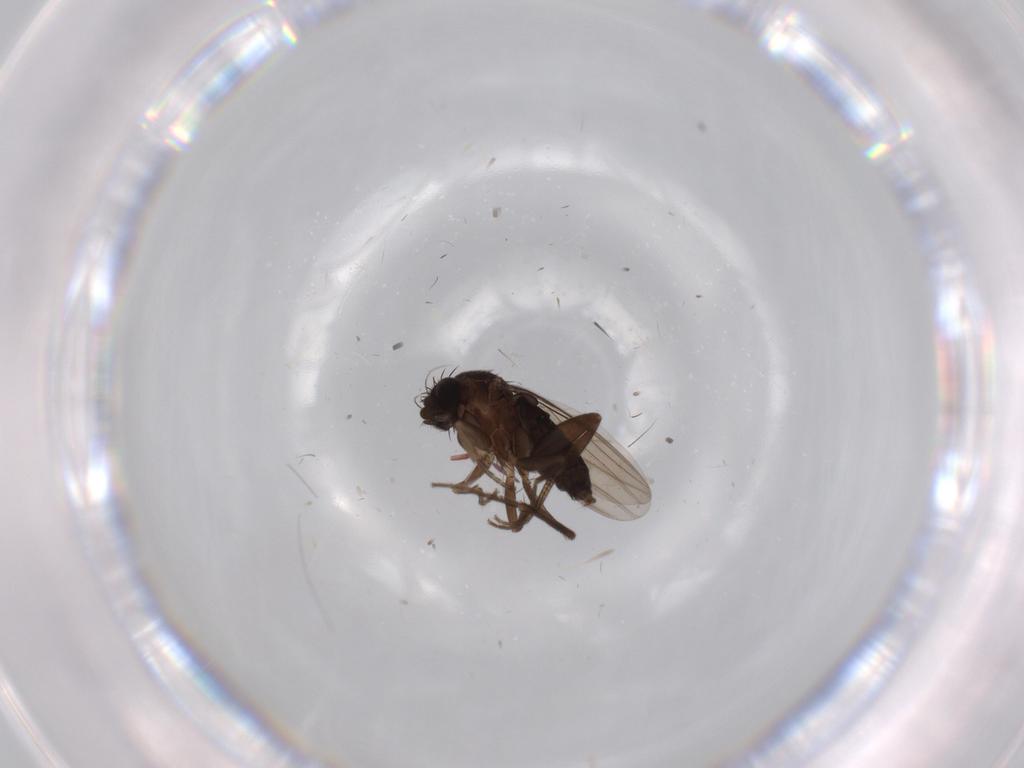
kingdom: Animalia
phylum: Arthropoda
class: Insecta
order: Diptera
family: Phoridae
